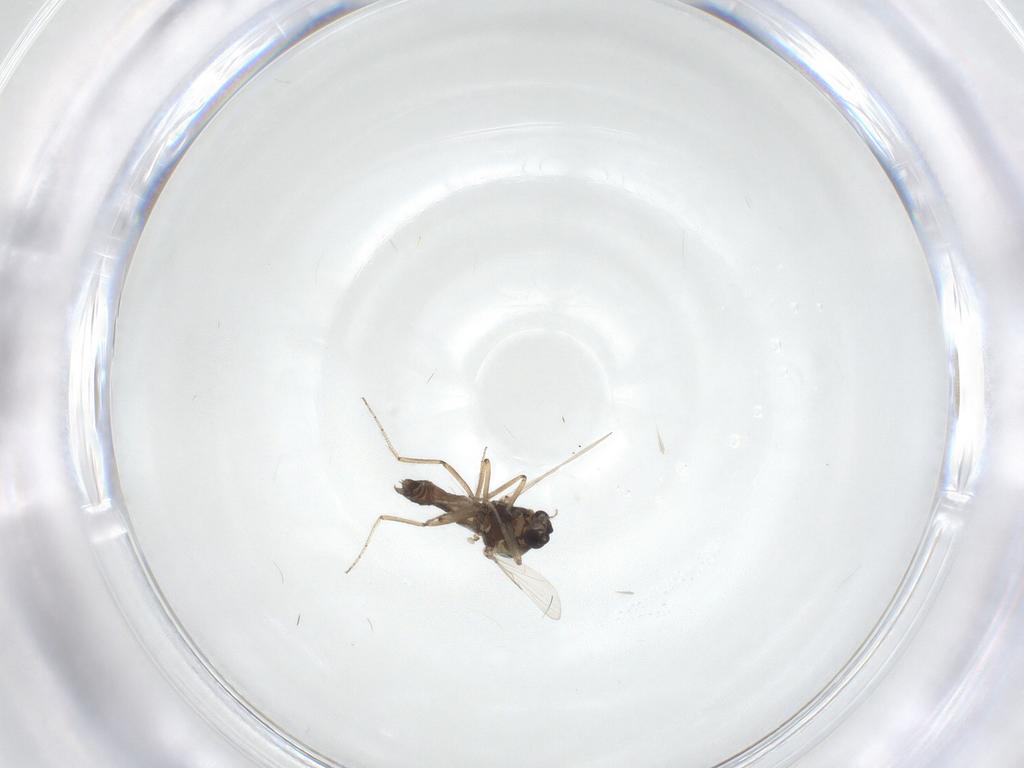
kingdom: Animalia
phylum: Arthropoda
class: Insecta
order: Diptera
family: Ceratopogonidae
